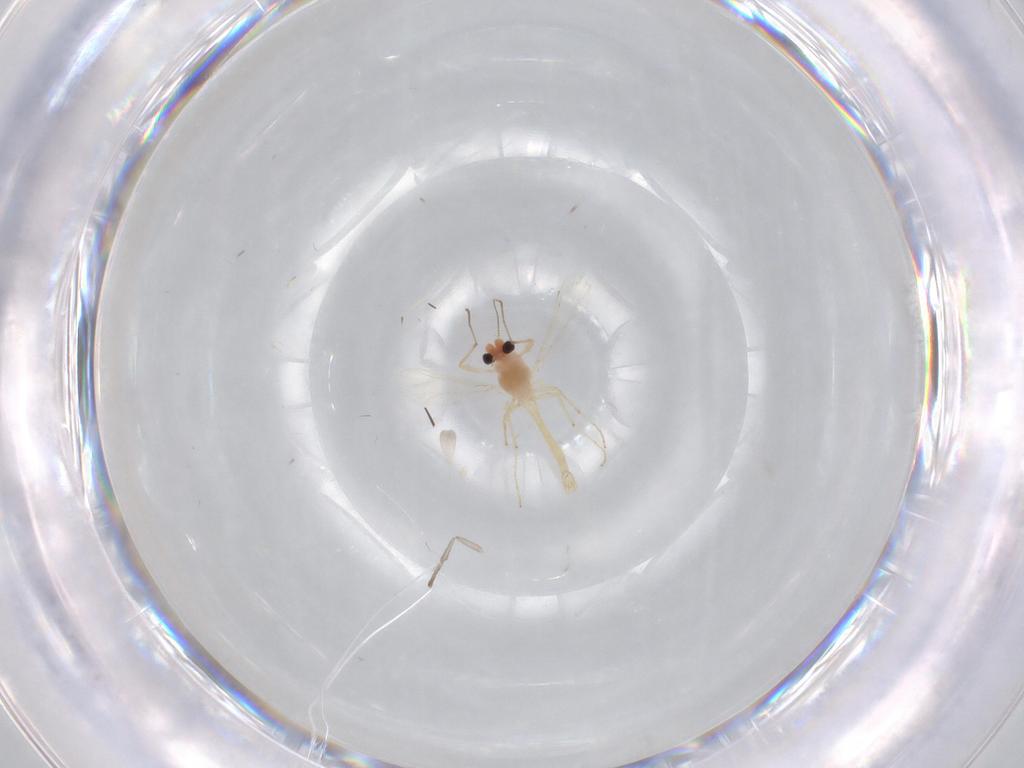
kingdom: Animalia
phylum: Arthropoda
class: Insecta
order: Diptera
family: Chironomidae
